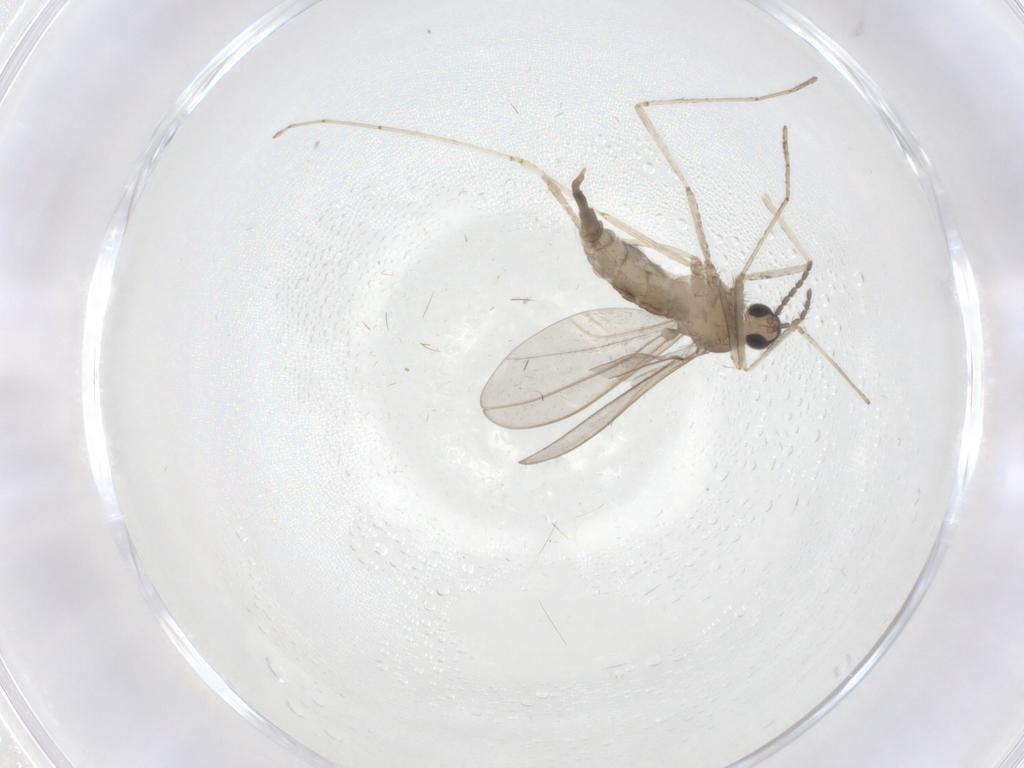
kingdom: Animalia
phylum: Arthropoda
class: Insecta
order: Diptera
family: Cecidomyiidae
